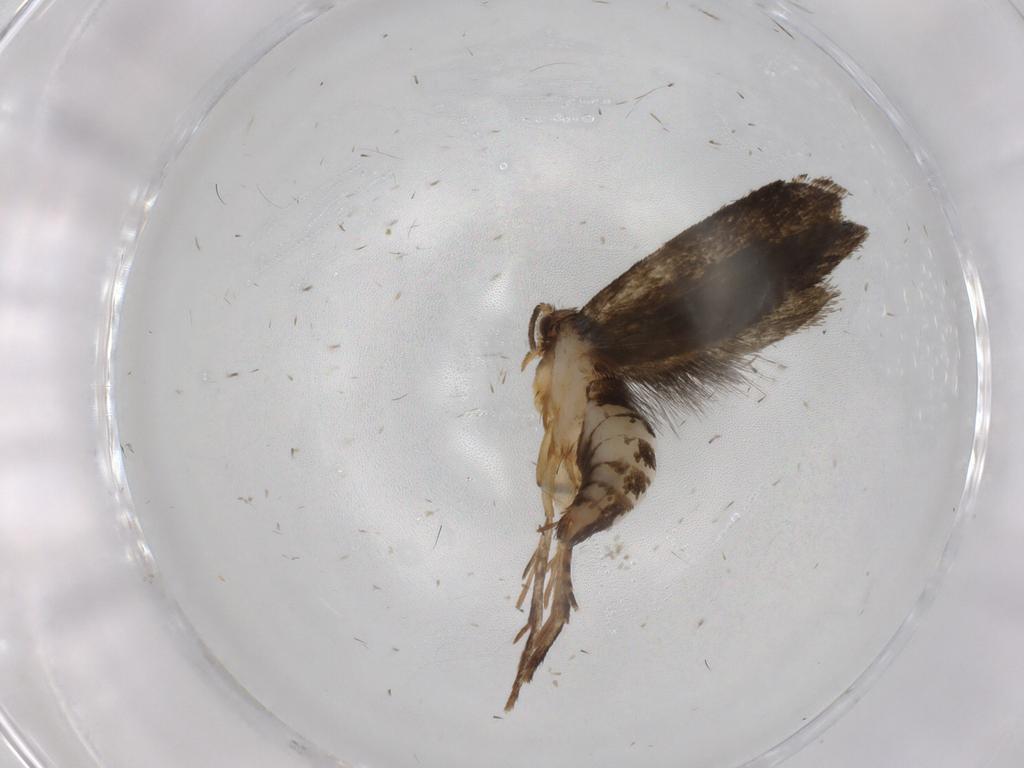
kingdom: Animalia
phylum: Arthropoda
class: Insecta
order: Lepidoptera
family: Crambidae
